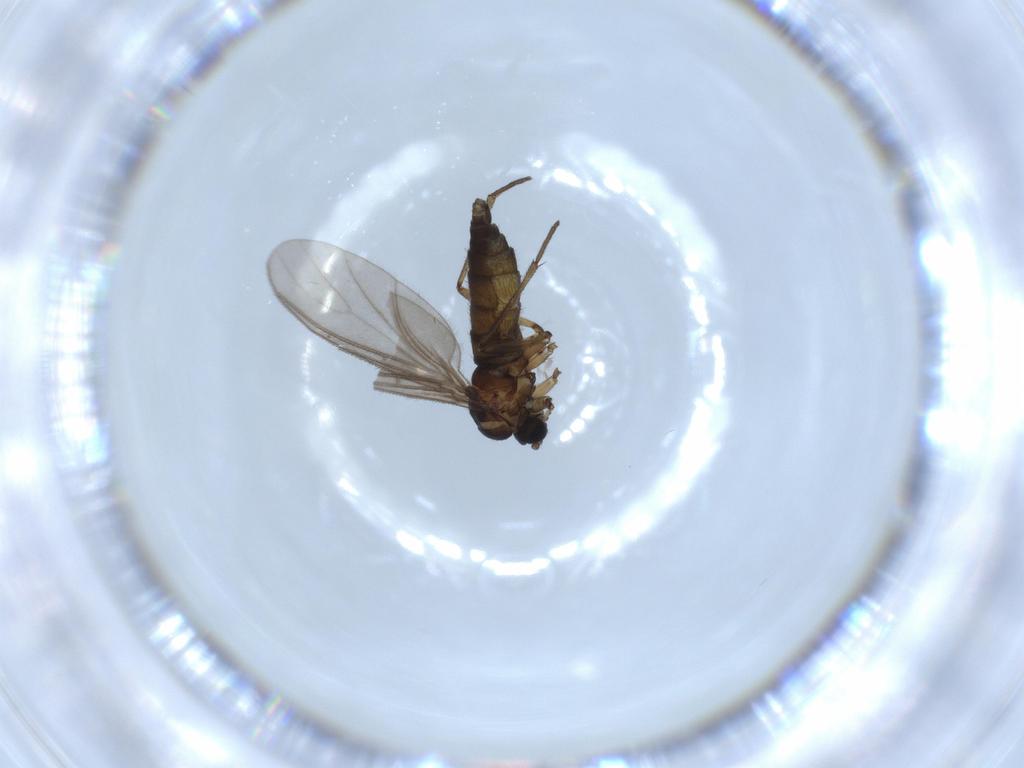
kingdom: Animalia
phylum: Arthropoda
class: Insecta
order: Diptera
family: Sciaridae
